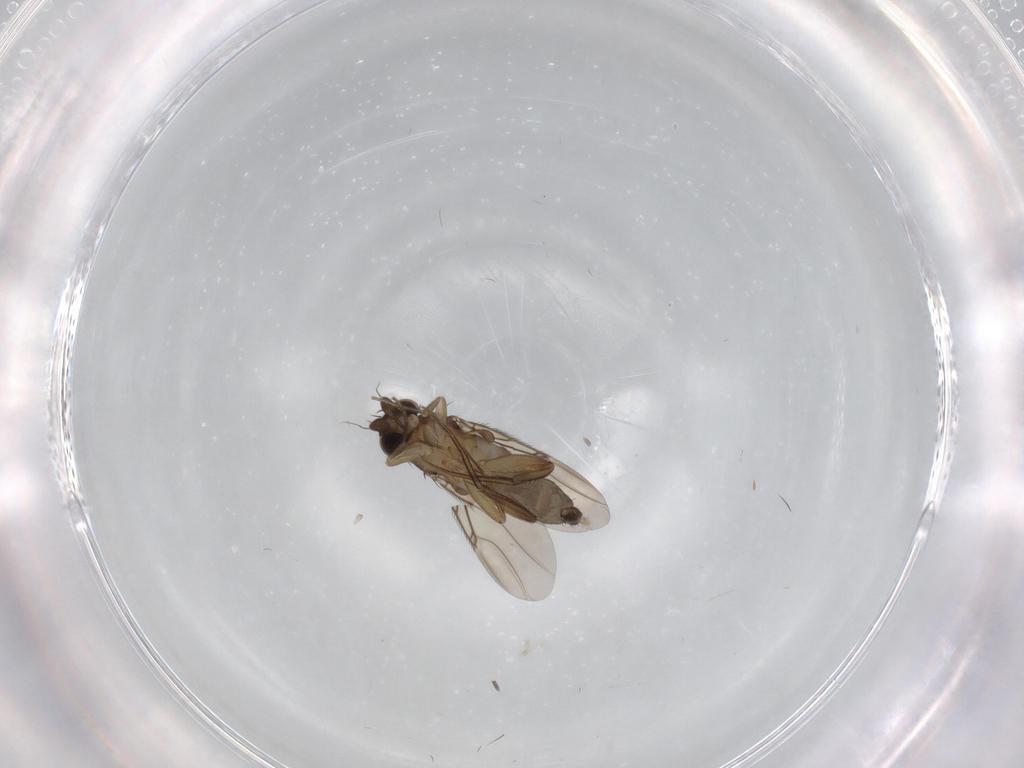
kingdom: Animalia
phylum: Arthropoda
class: Insecta
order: Diptera
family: Phoridae
